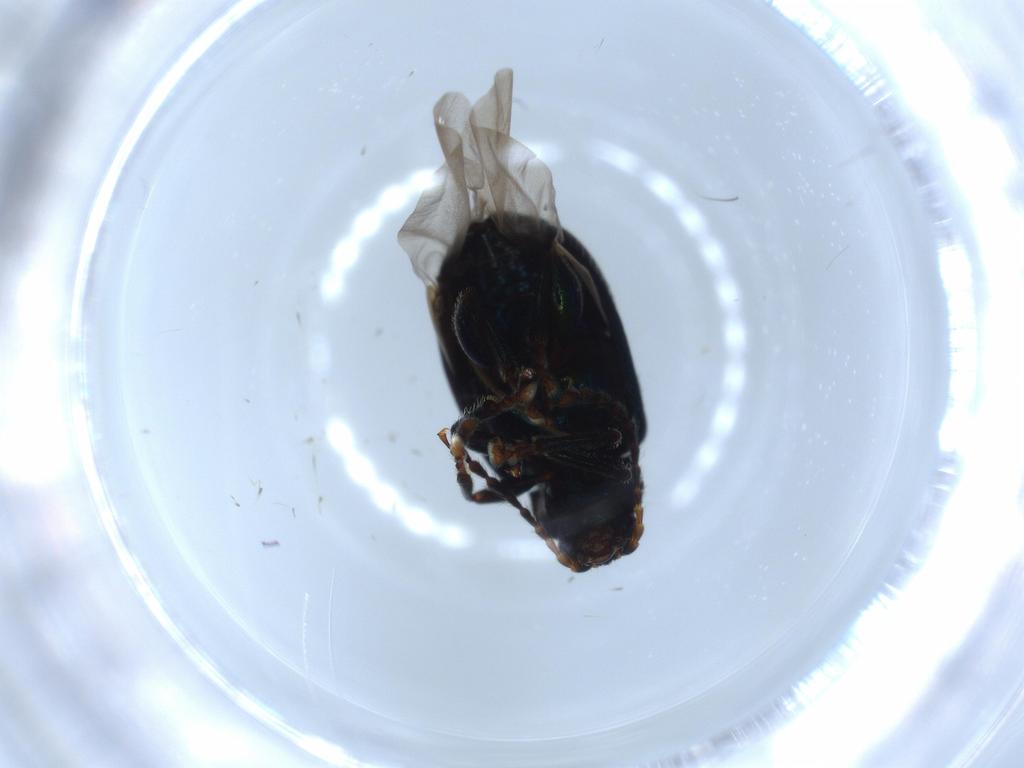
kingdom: Animalia
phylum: Arthropoda
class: Insecta
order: Coleoptera
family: Chrysomelidae
